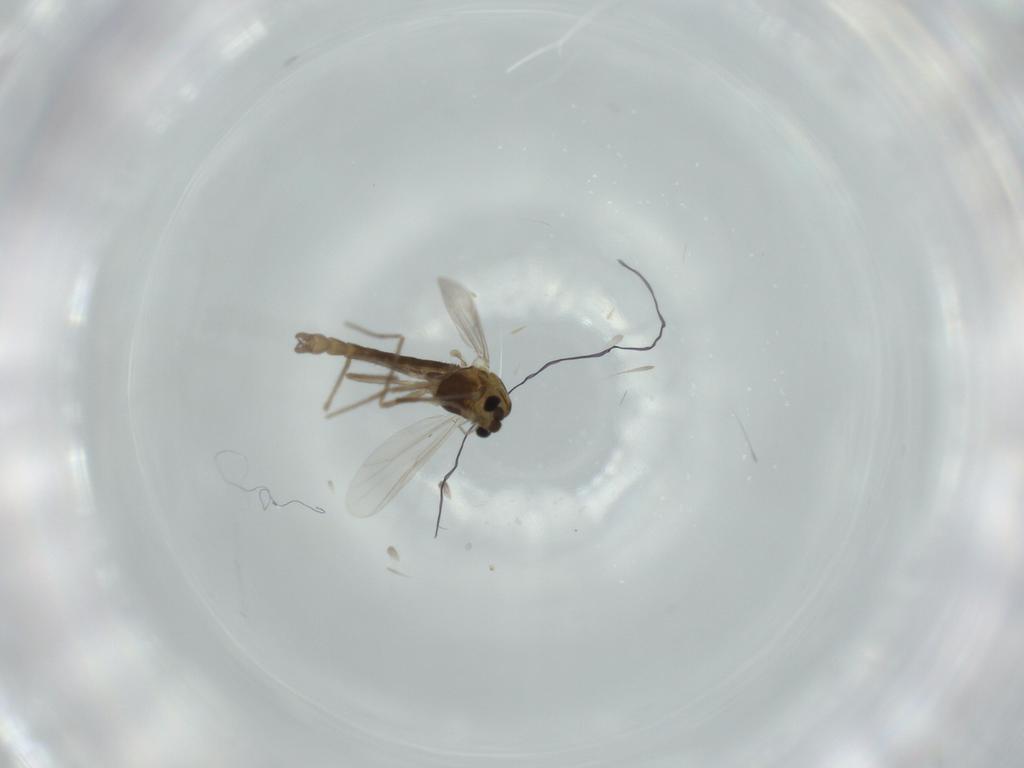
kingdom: Animalia
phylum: Arthropoda
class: Insecta
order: Diptera
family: Chironomidae
